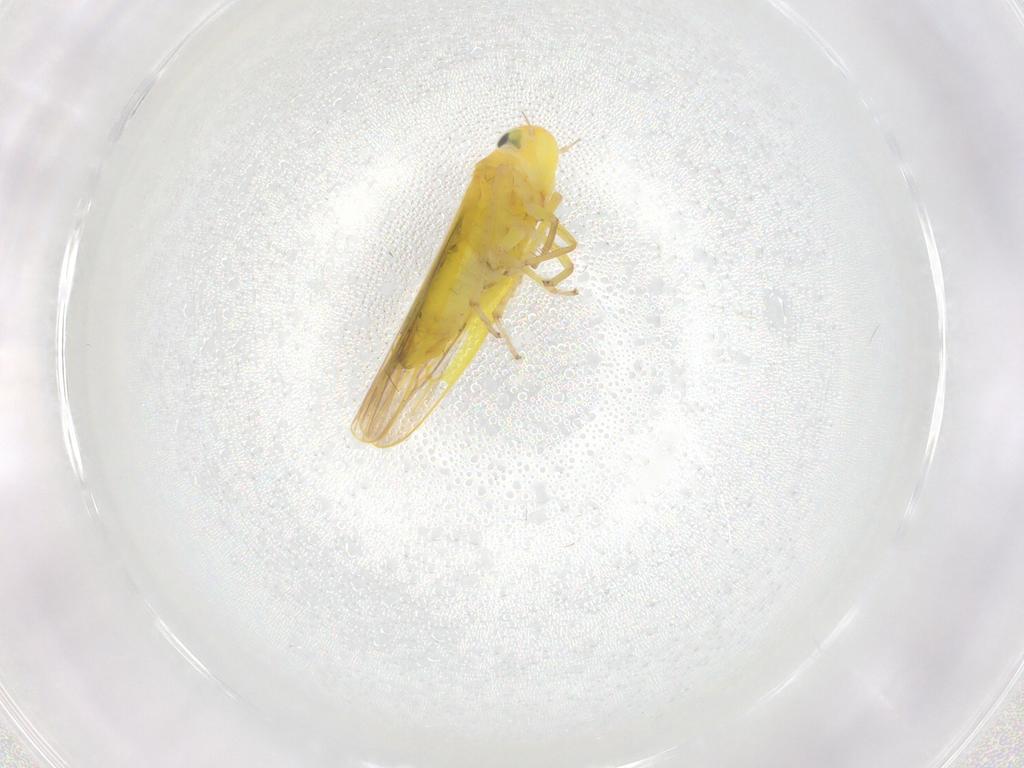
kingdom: Animalia
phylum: Arthropoda
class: Insecta
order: Hemiptera
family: Cicadellidae
